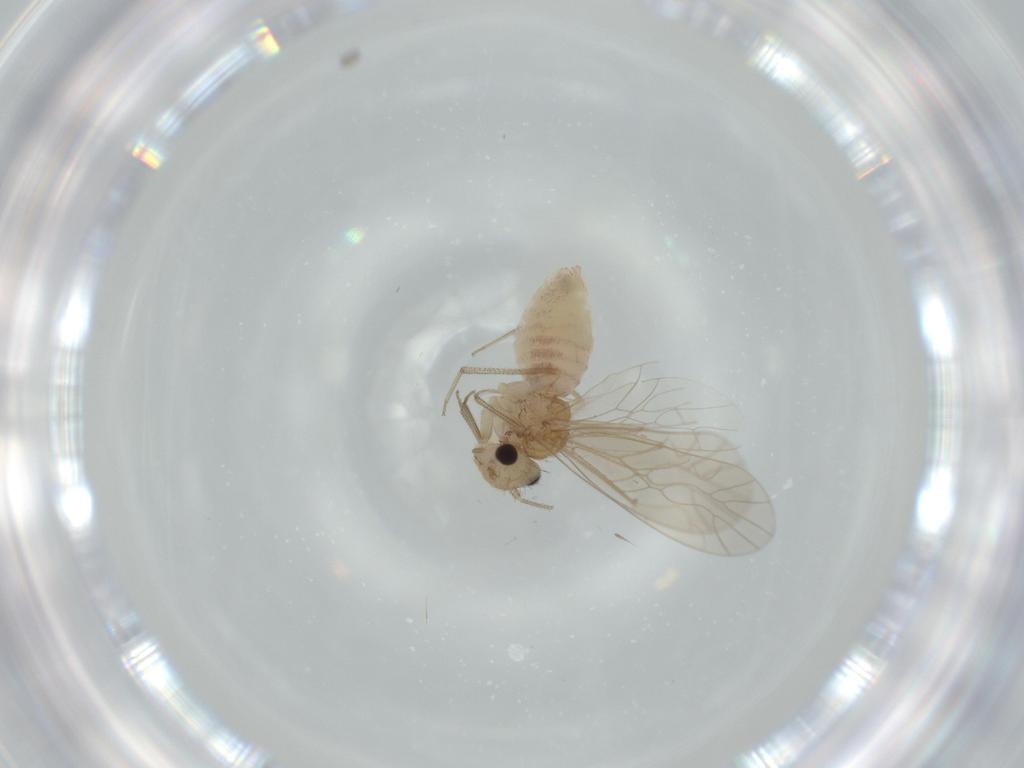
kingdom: Animalia
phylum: Arthropoda
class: Insecta
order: Psocodea
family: Caeciliusidae
